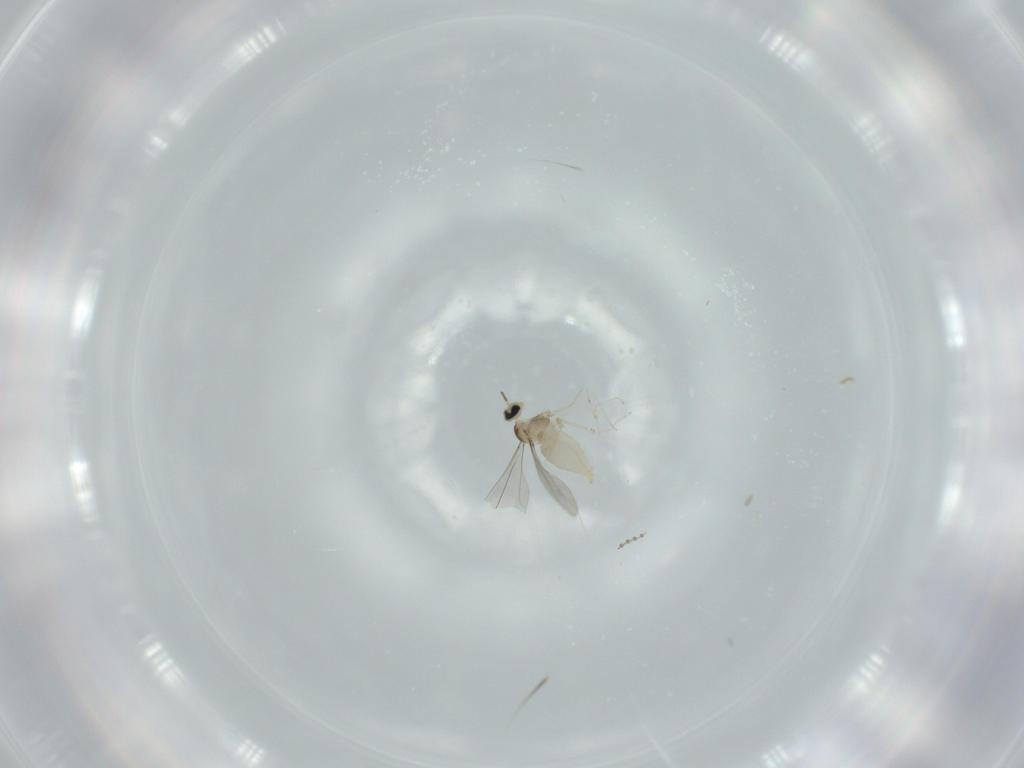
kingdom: Animalia
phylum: Arthropoda
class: Insecta
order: Diptera
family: Cecidomyiidae
